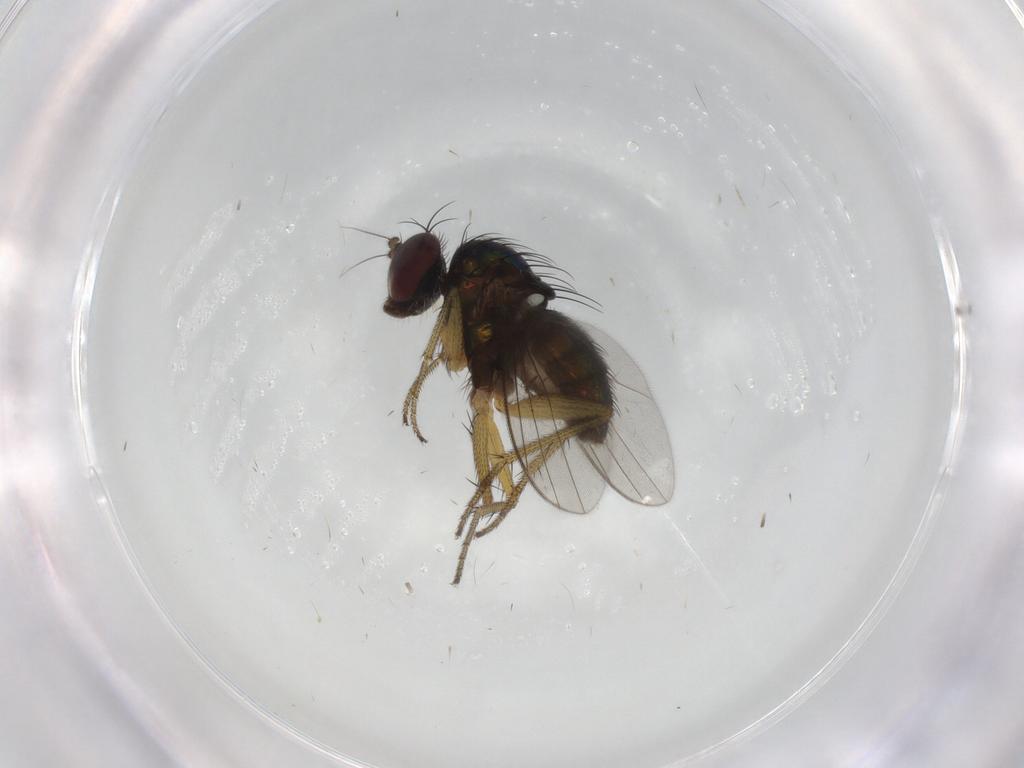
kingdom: Animalia
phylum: Arthropoda
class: Insecta
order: Diptera
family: Dolichopodidae
